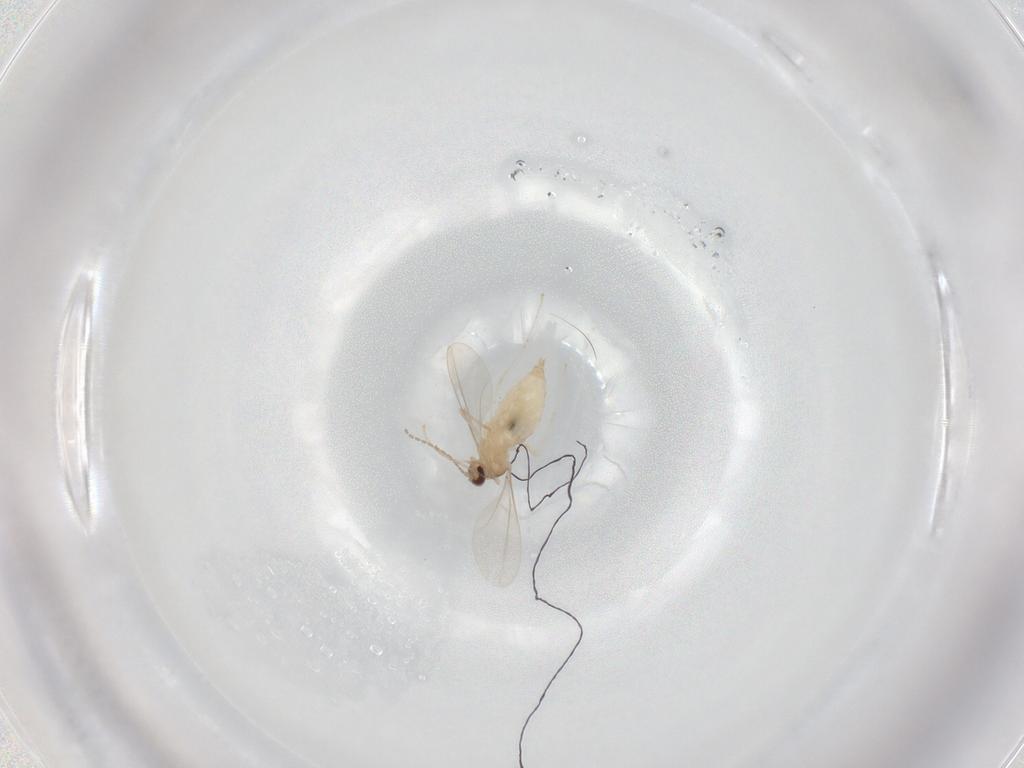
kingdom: Animalia
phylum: Arthropoda
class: Insecta
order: Diptera
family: Cecidomyiidae
